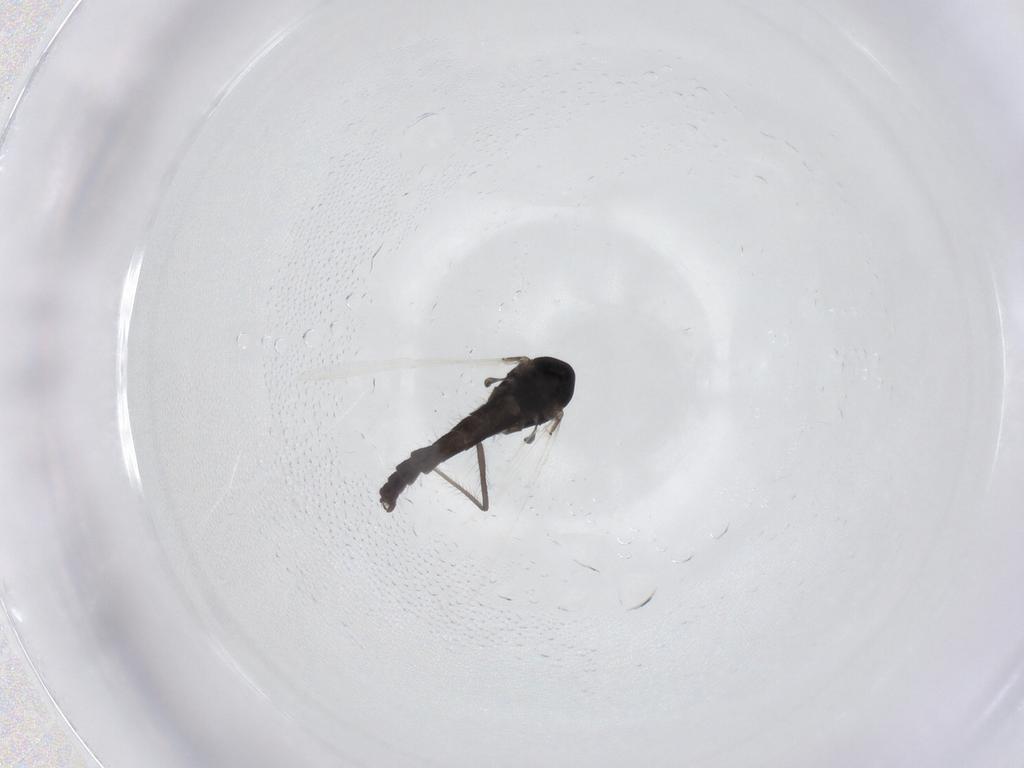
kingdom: Animalia
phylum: Arthropoda
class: Insecta
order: Diptera
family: Chironomidae
